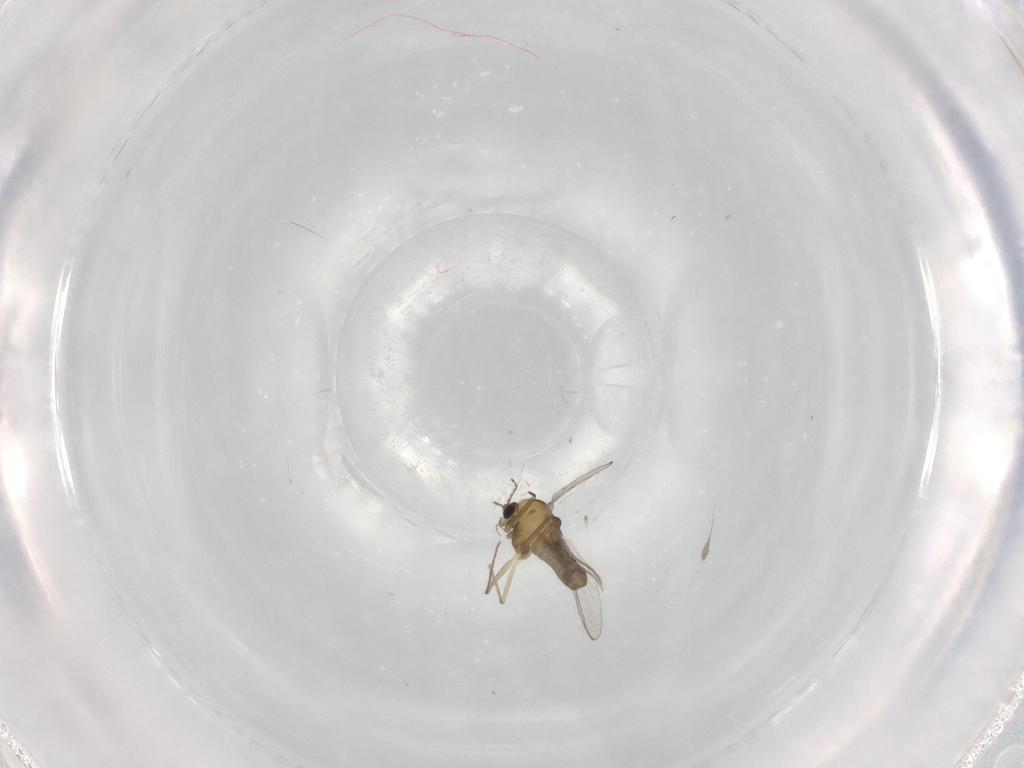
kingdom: Animalia
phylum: Arthropoda
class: Insecta
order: Diptera
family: Chironomidae
